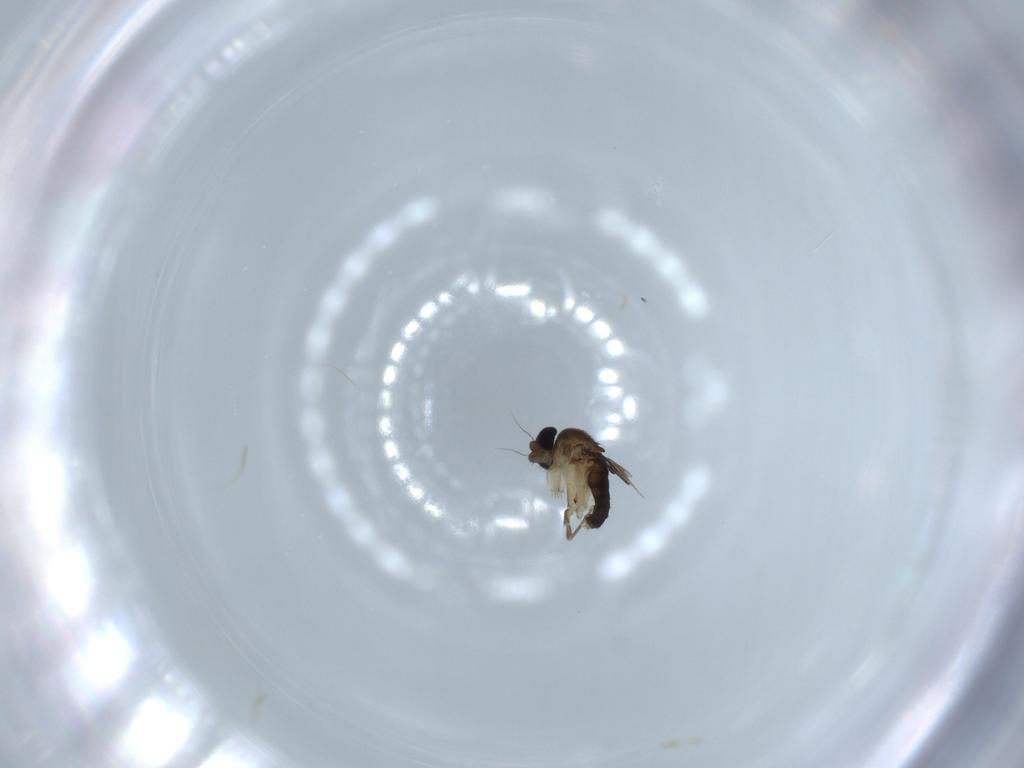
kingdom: Animalia
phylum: Arthropoda
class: Insecta
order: Diptera
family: Phoridae
